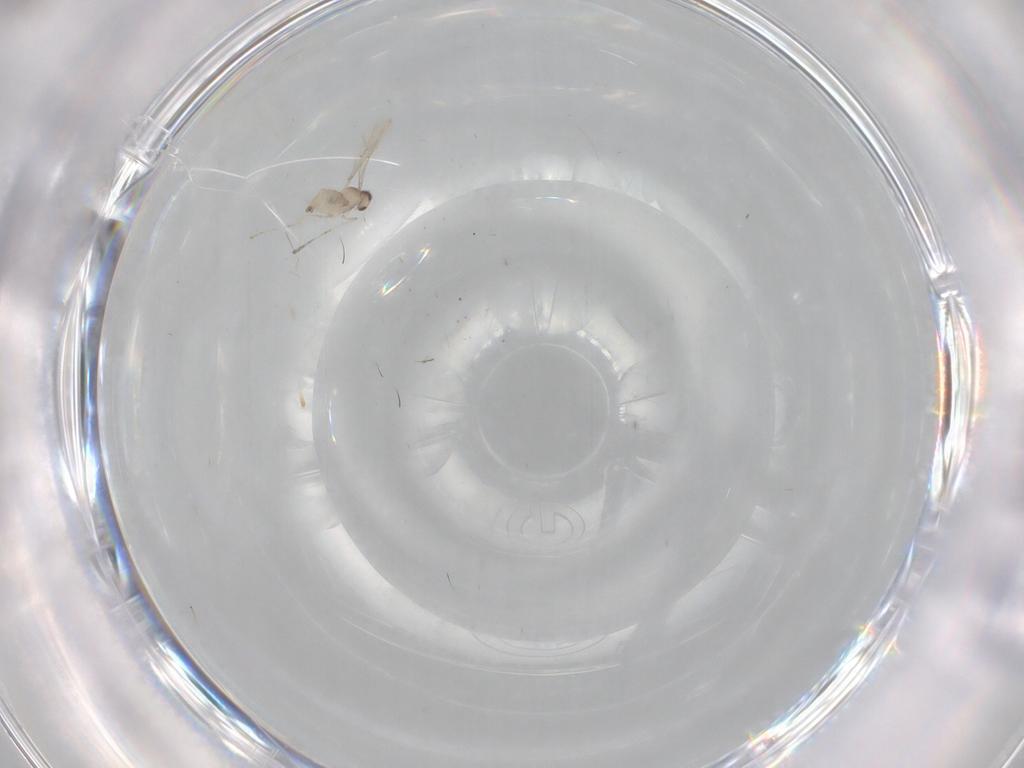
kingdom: Animalia
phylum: Arthropoda
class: Insecta
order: Diptera
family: Cecidomyiidae
